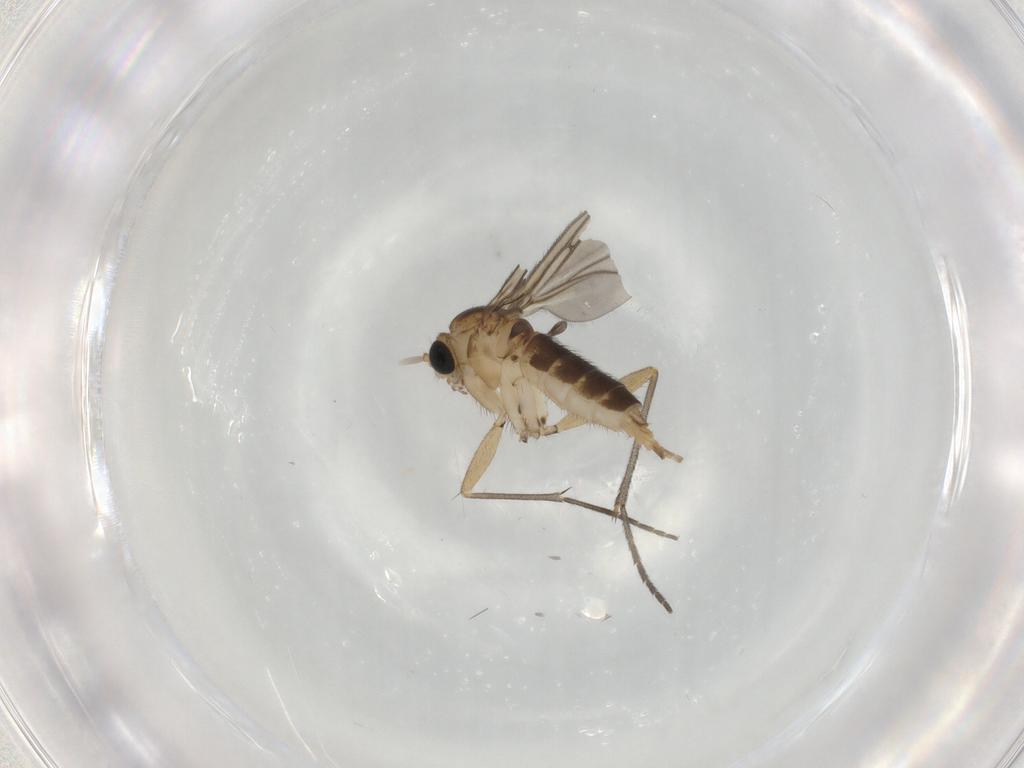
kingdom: Animalia
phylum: Arthropoda
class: Insecta
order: Diptera
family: Sciaridae
